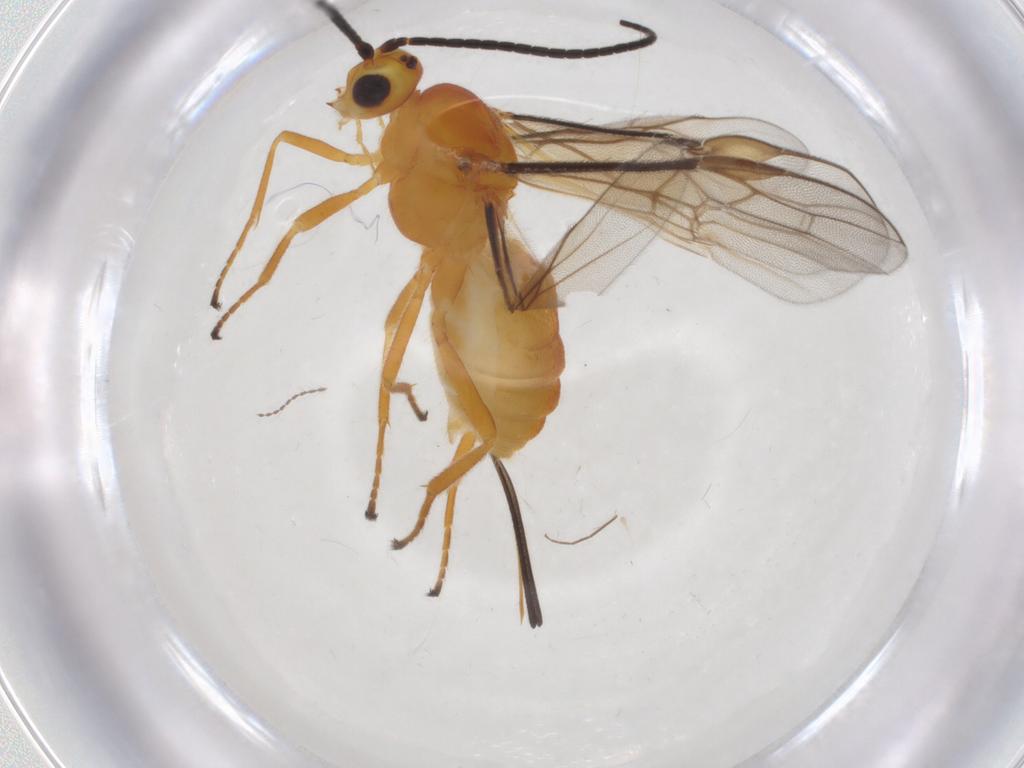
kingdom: Animalia
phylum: Arthropoda
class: Insecta
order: Hymenoptera
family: Braconidae
